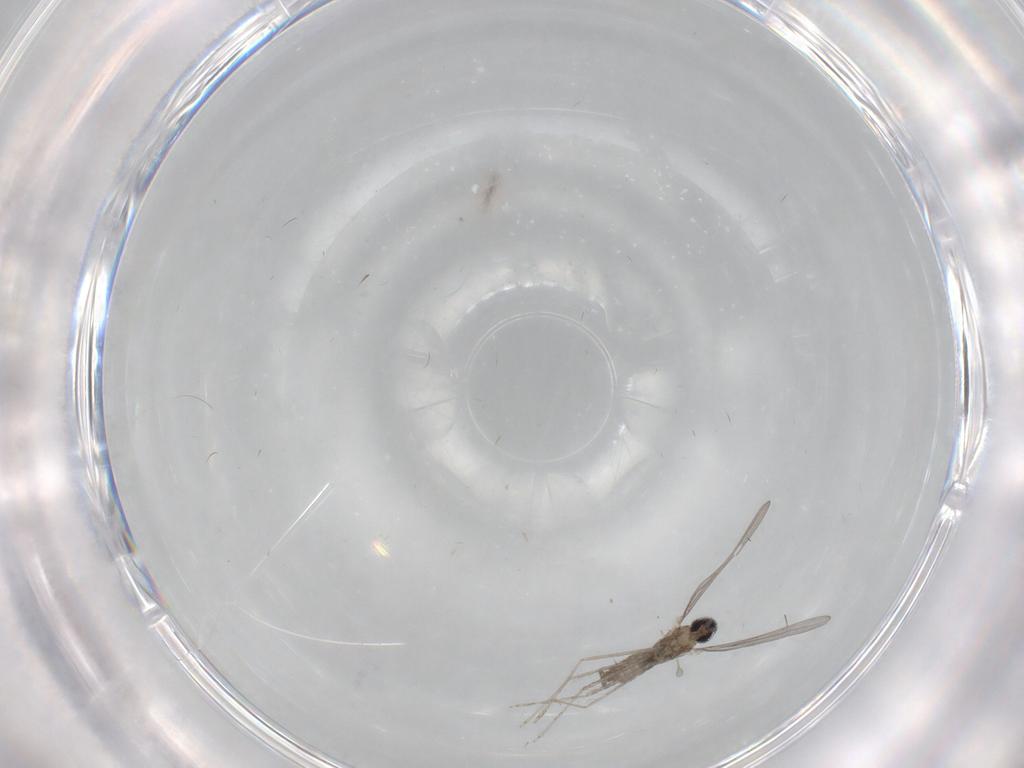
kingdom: Animalia
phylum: Arthropoda
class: Insecta
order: Diptera
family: Cecidomyiidae
